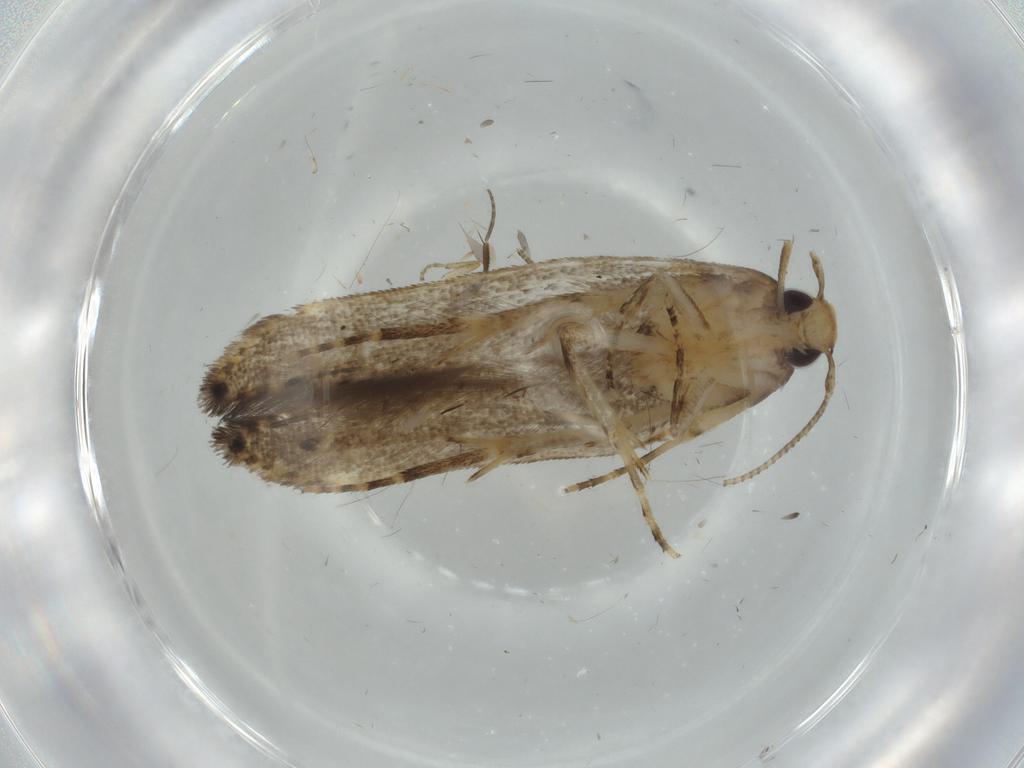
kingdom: Animalia
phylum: Arthropoda
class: Insecta
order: Lepidoptera
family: Cosmopterigidae
